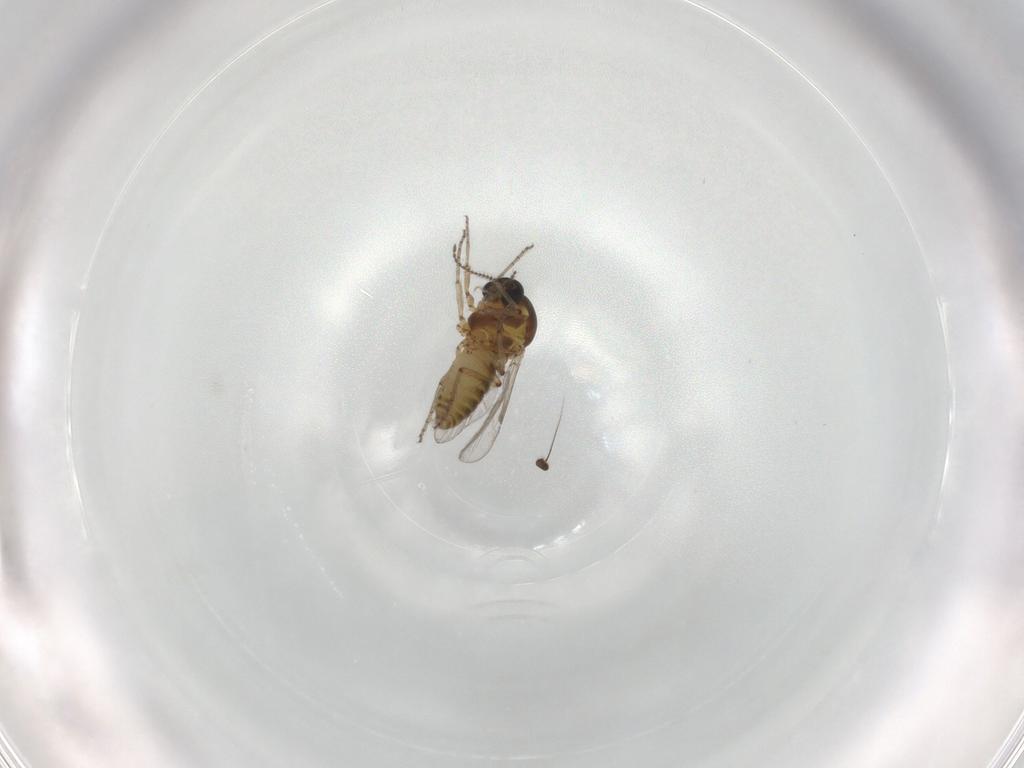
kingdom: Animalia
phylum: Arthropoda
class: Insecta
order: Diptera
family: Ceratopogonidae
